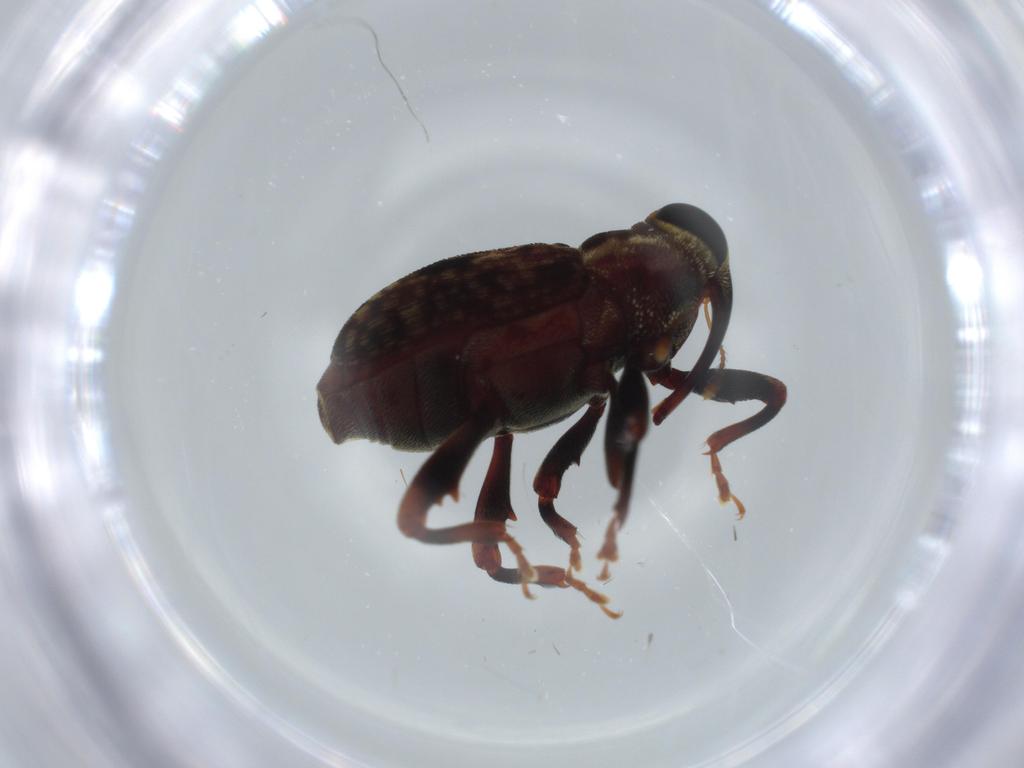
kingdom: Animalia
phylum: Arthropoda
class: Insecta
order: Coleoptera
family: Curculionidae
